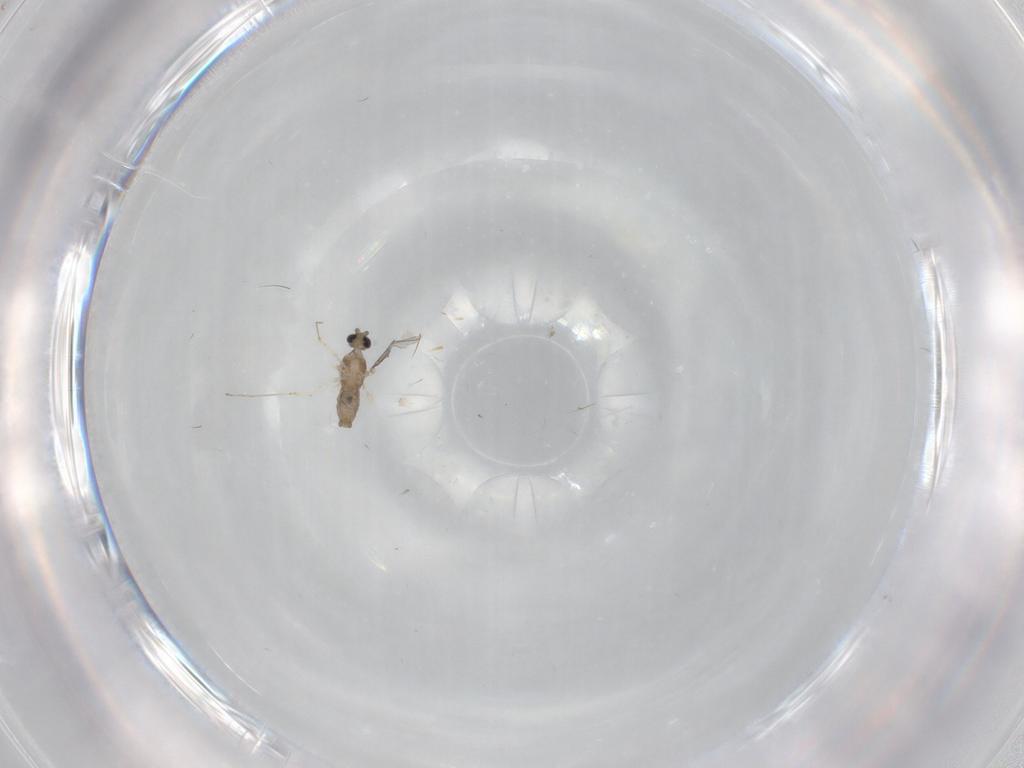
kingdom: Animalia
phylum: Arthropoda
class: Insecta
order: Diptera
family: Cecidomyiidae
